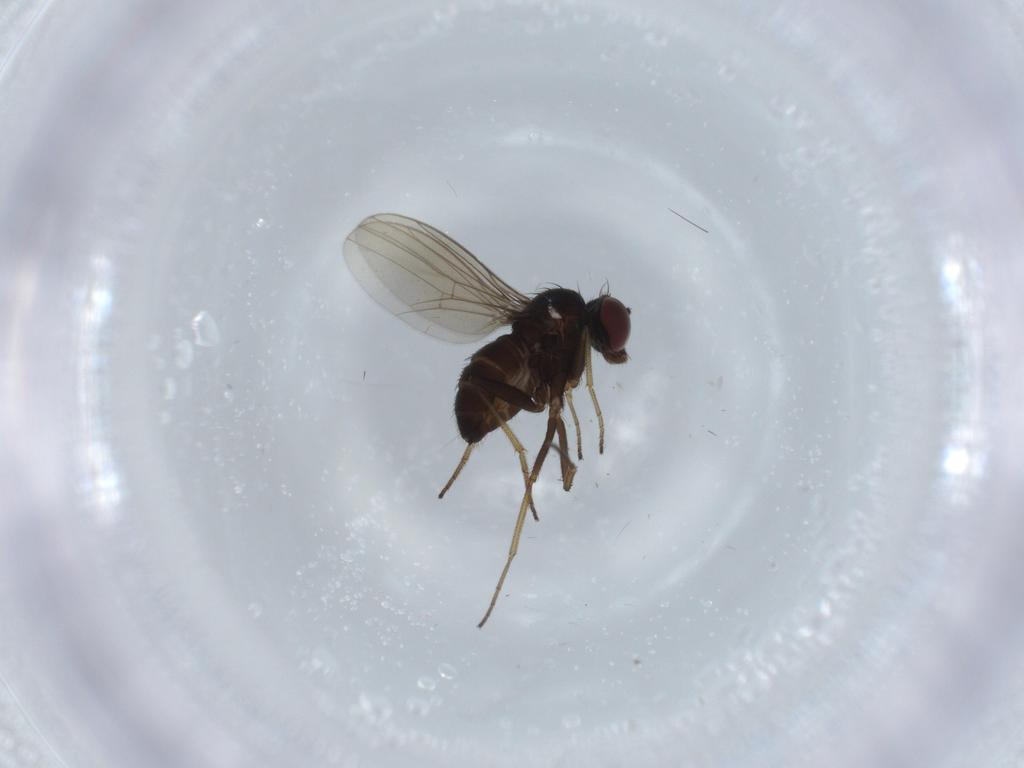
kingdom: Animalia
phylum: Arthropoda
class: Insecta
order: Diptera
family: Dolichopodidae
